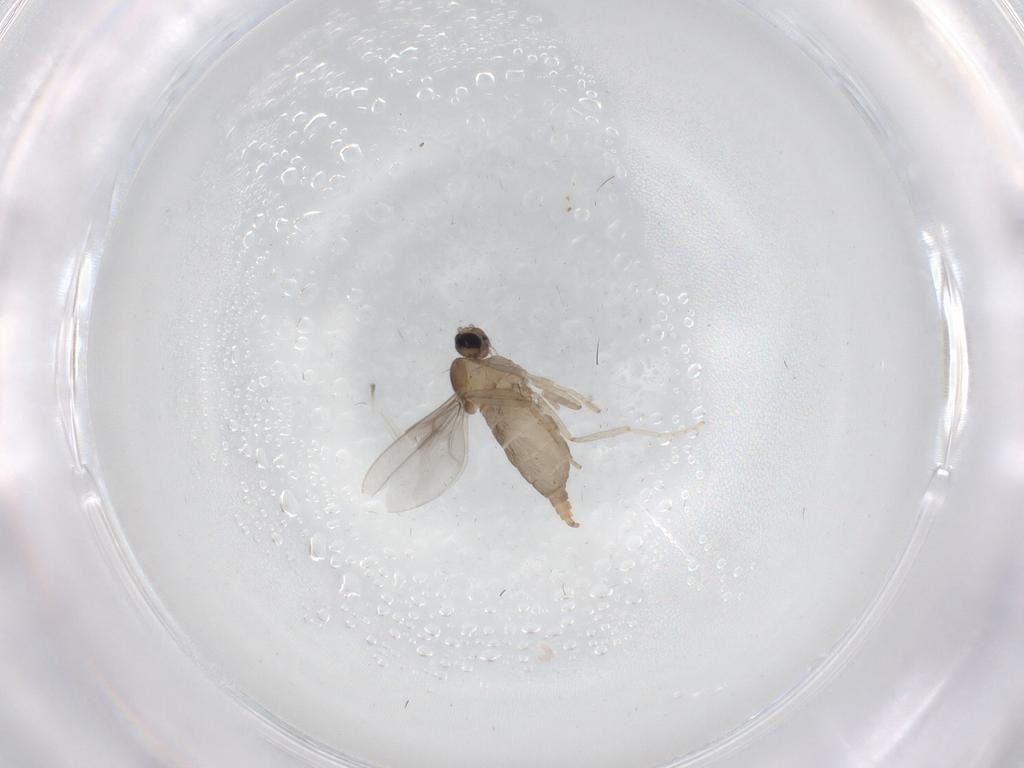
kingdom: Animalia
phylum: Arthropoda
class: Insecta
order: Diptera
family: Cecidomyiidae
